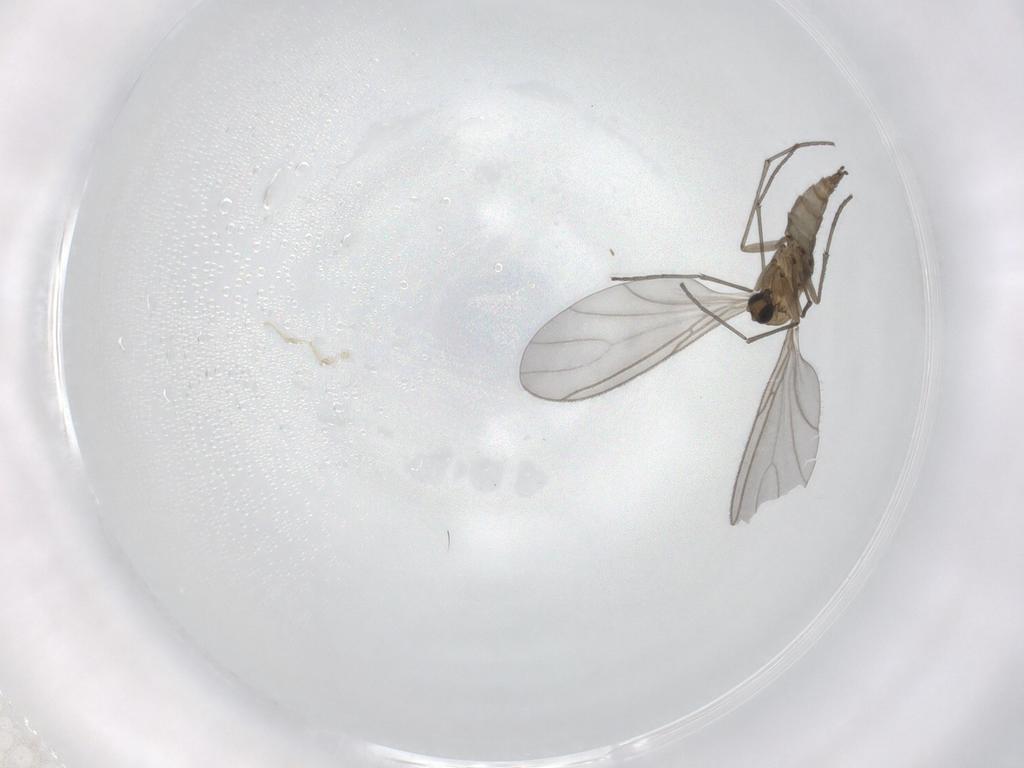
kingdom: Animalia
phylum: Arthropoda
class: Insecta
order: Diptera
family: Sciaridae
